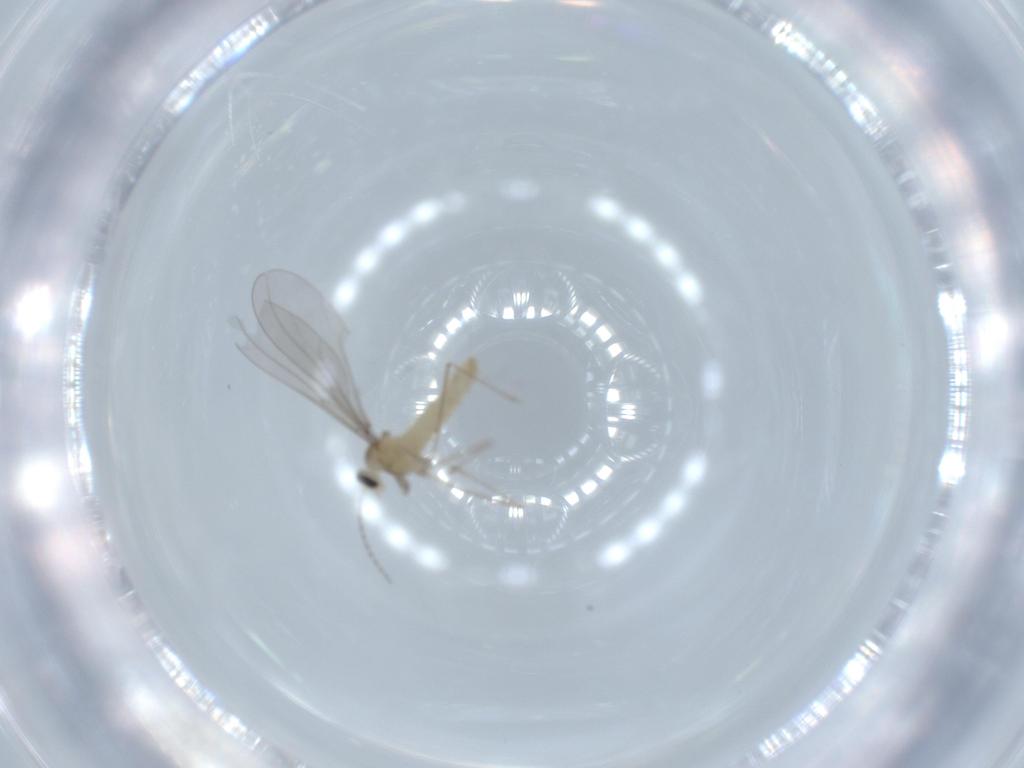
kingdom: Animalia
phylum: Arthropoda
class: Insecta
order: Diptera
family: Cecidomyiidae
